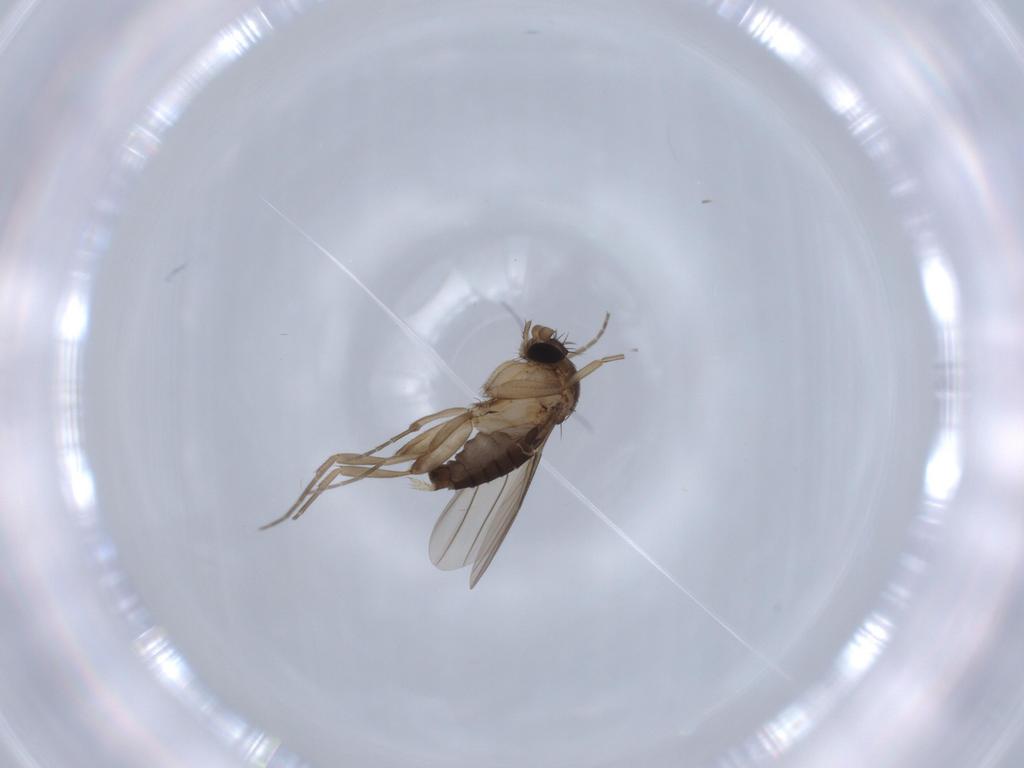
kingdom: Animalia
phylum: Arthropoda
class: Insecta
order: Diptera
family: Phoridae
